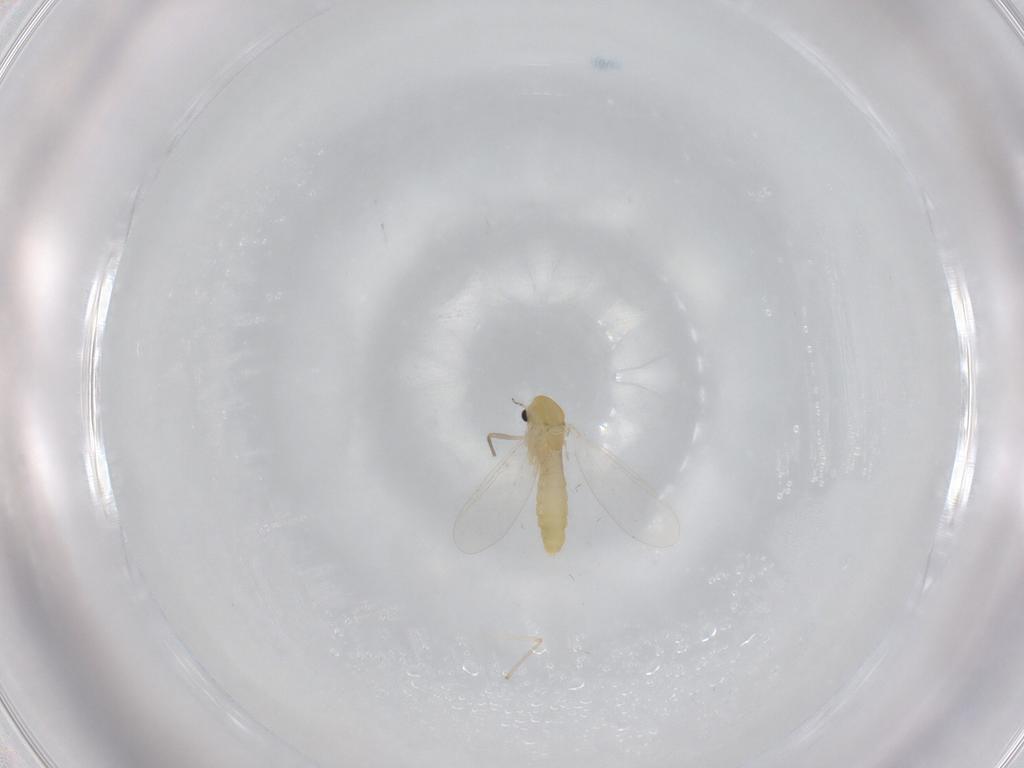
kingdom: Animalia
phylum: Arthropoda
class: Insecta
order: Diptera
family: Chironomidae
